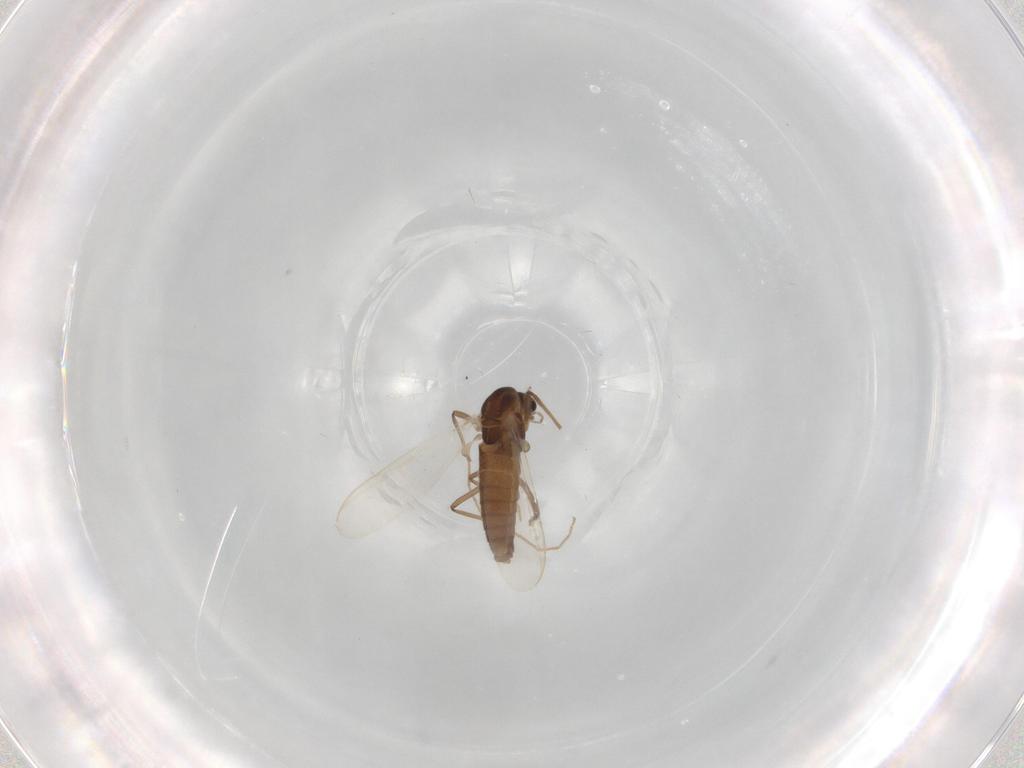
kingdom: Animalia
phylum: Arthropoda
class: Insecta
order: Diptera
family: Chironomidae
